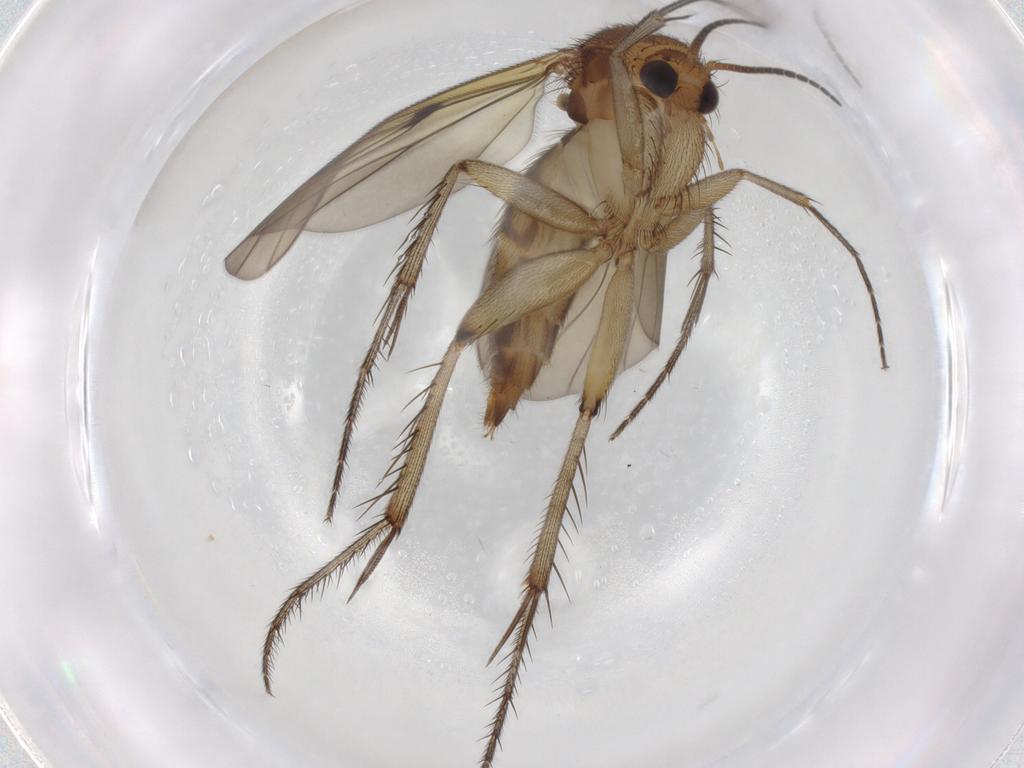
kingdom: Animalia
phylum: Arthropoda
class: Insecta
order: Diptera
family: Mycetophilidae
